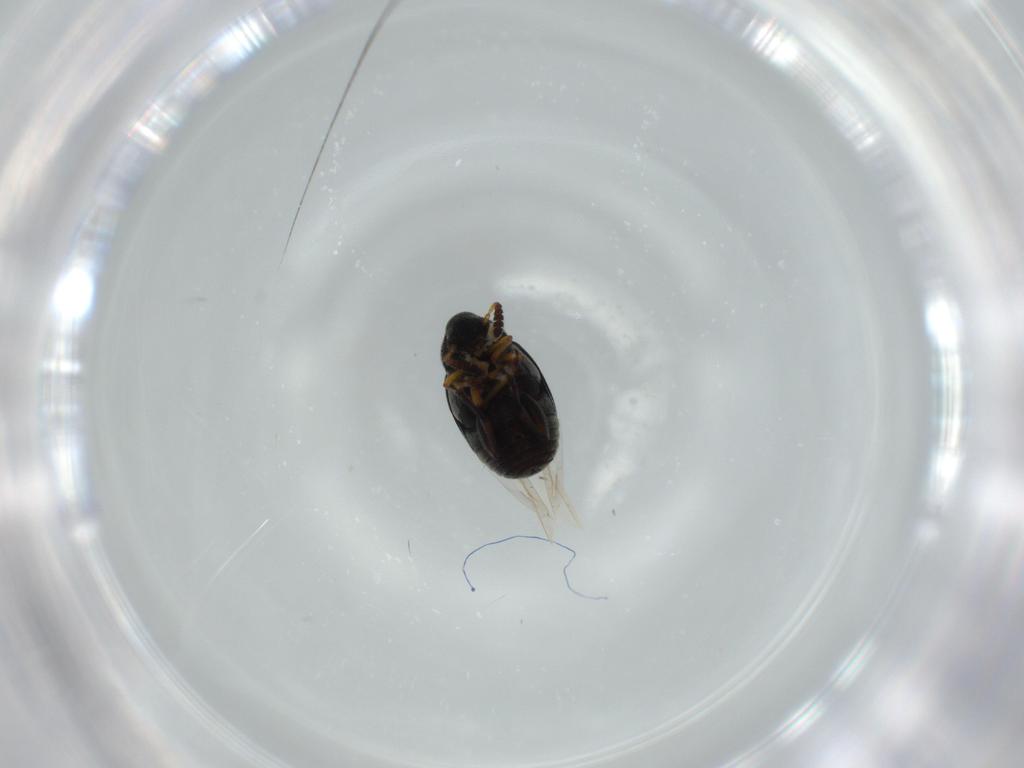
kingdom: Animalia
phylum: Arthropoda
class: Insecta
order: Coleoptera
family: Chrysomelidae
